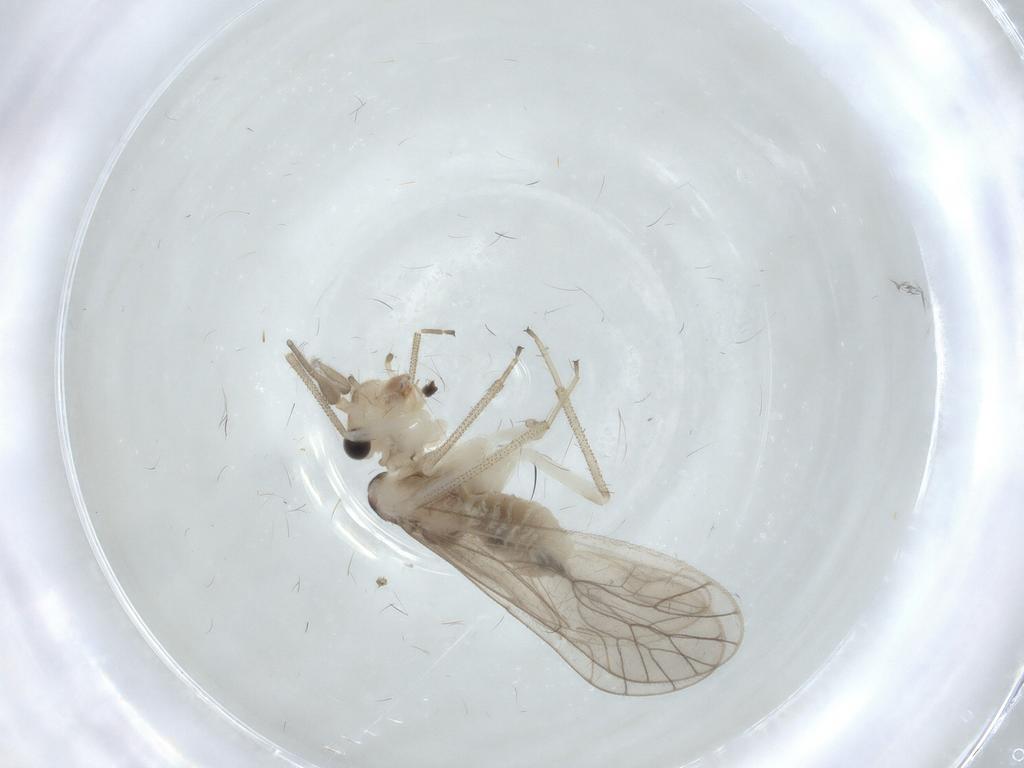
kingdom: Animalia
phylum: Arthropoda
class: Insecta
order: Psocodea
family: Caeciliusidae
